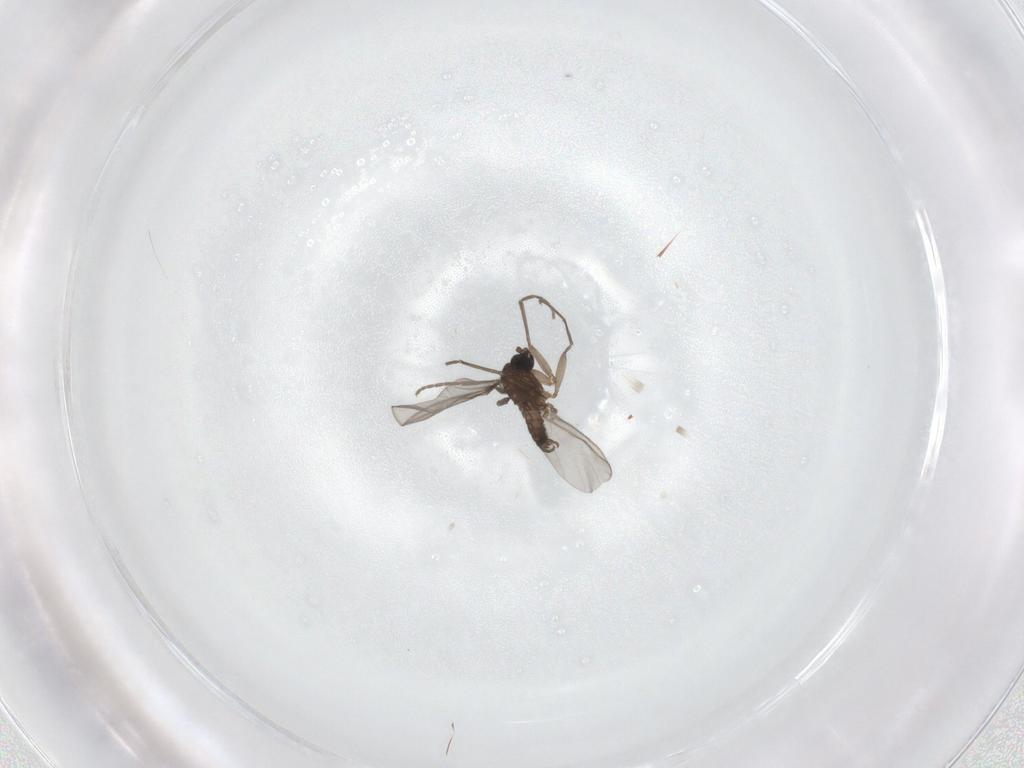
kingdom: Animalia
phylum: Arthropoda
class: Insecta
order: Diptera
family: Sciaridae
